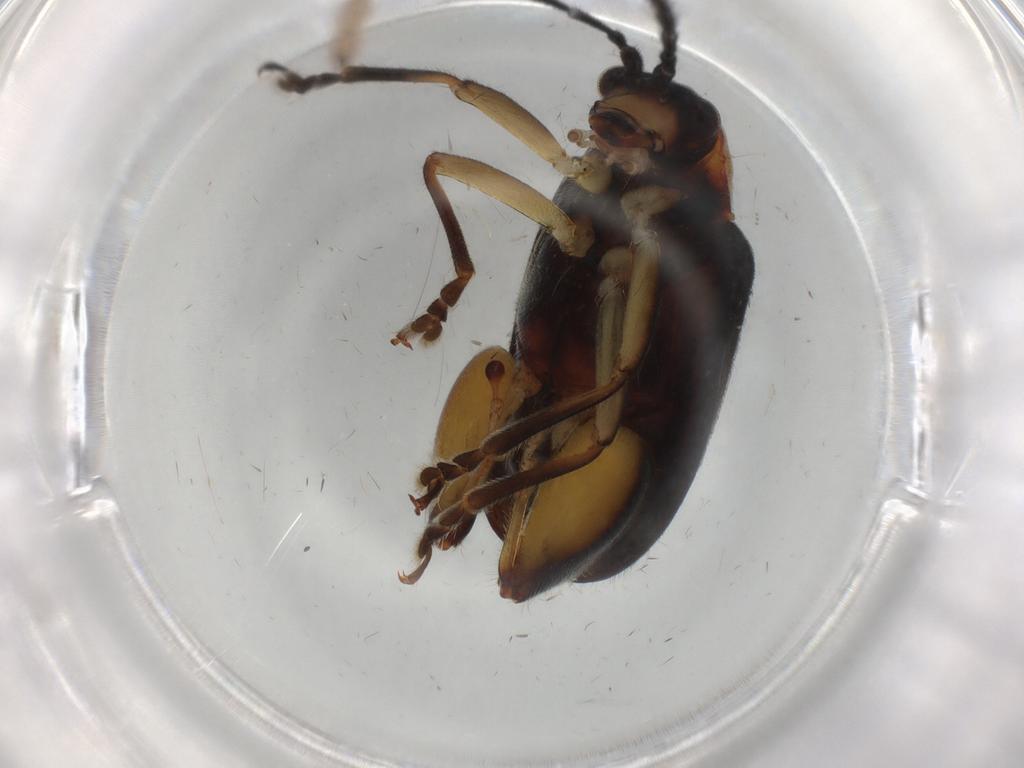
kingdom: Animalia
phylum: Arthropoda
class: Insecta
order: Coleoptera
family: Chrysomelidae
